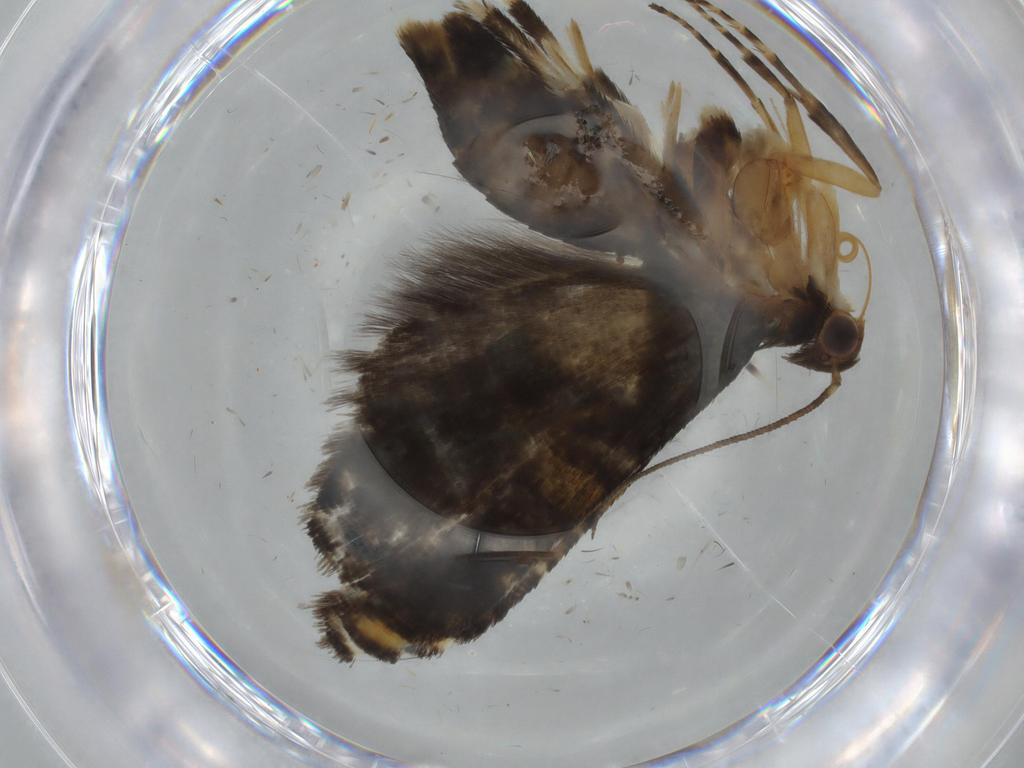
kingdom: Animalia
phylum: Arthropoda
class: Insecta
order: Lepidoptera
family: Glyphipterigidae
